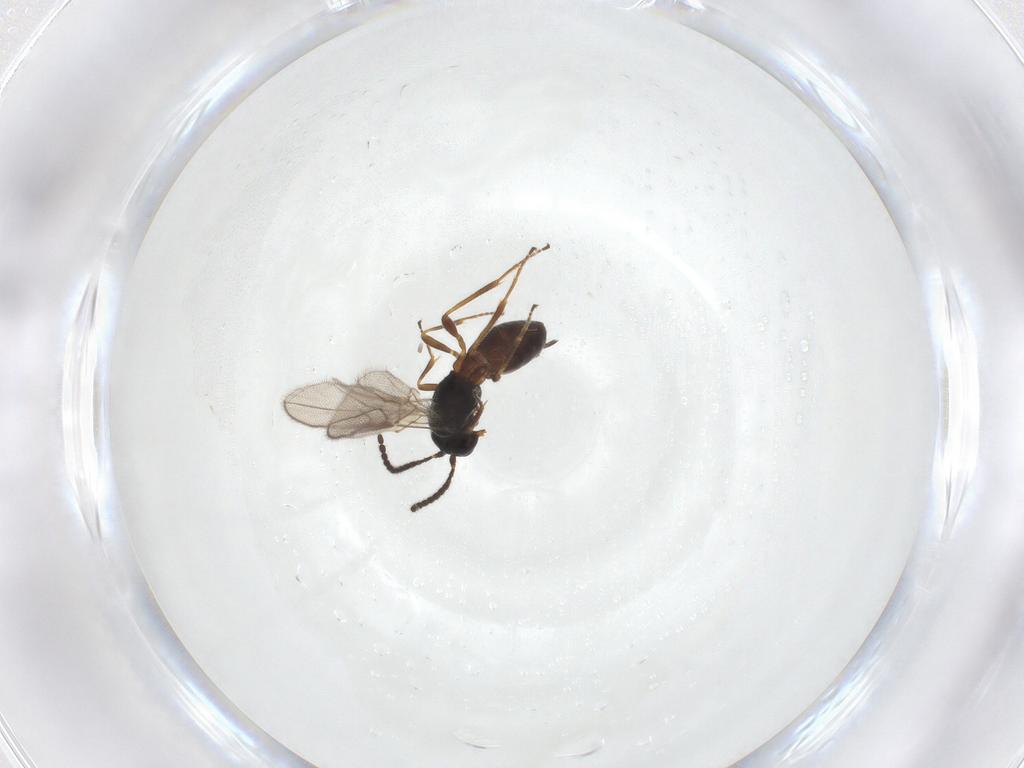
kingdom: Animalia
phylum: Arthropoda
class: Insecta
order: Hymenoptera
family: Braconidae
